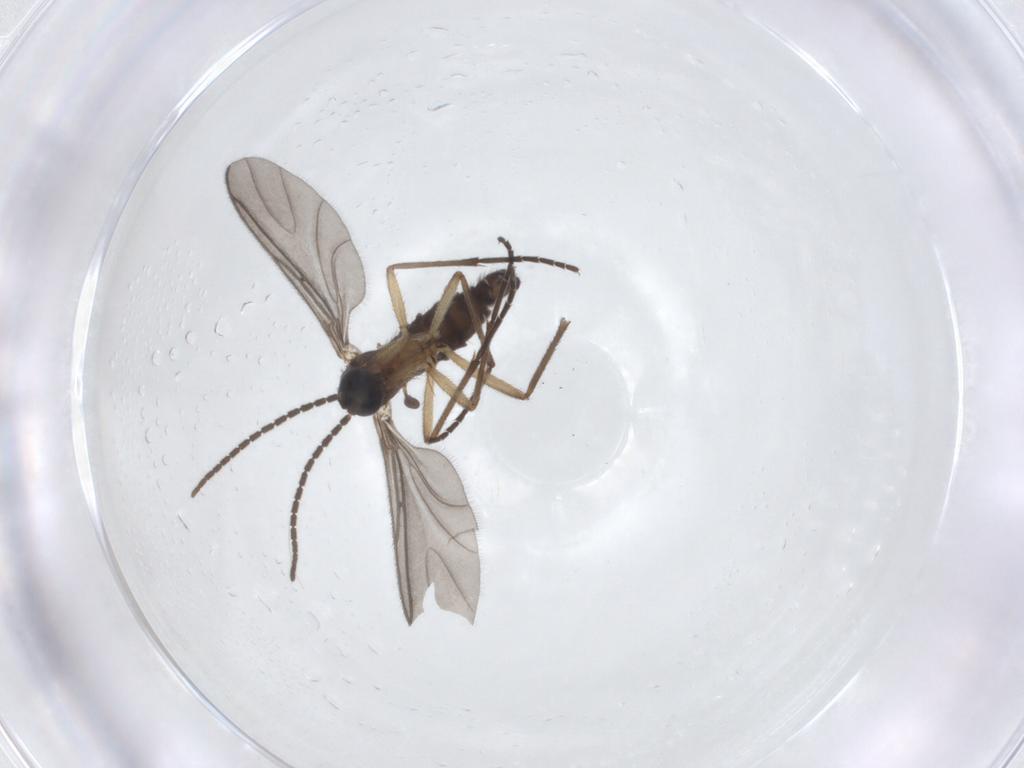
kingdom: Animalia
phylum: Arthropoda
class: Insecta
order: Diptera
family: Sciaridae
